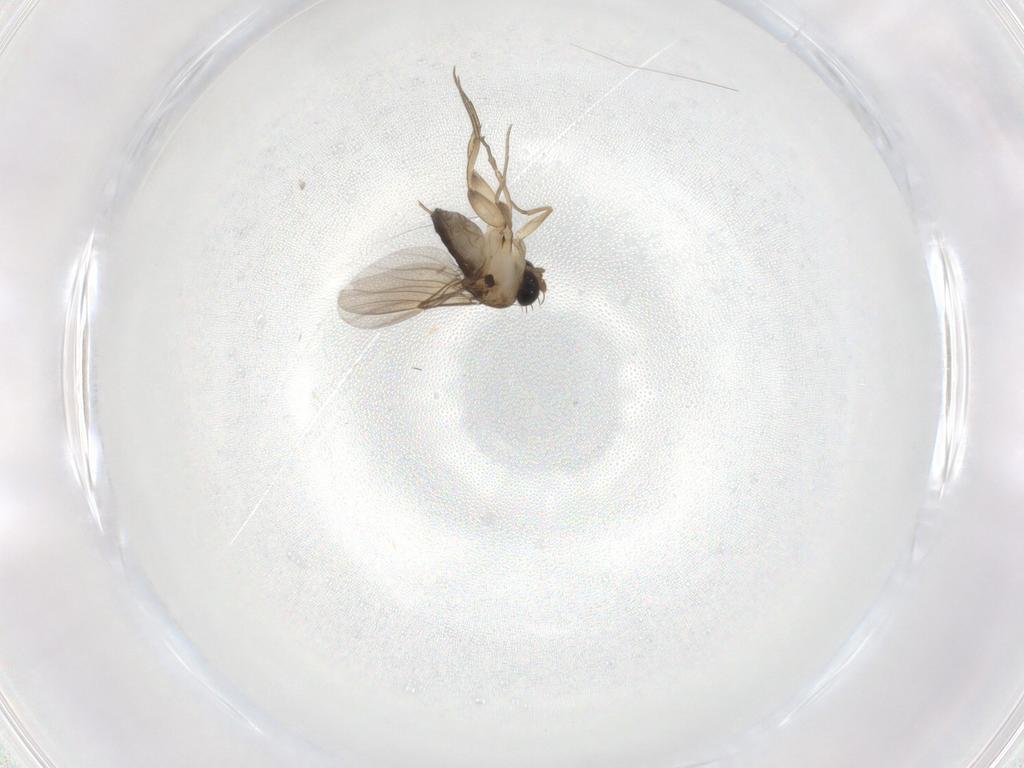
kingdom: Animalia
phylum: Arthropoda
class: Insecta
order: Diptera
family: Phoridae
